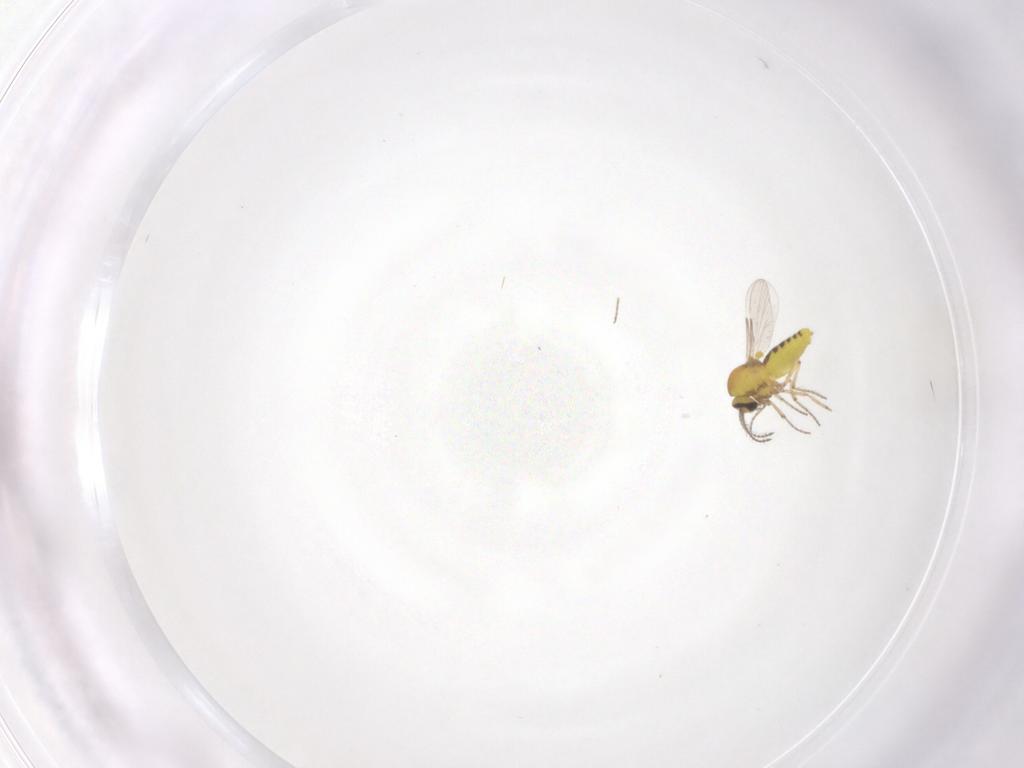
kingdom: Animalia
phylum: Arthropoda
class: Insecta
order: Diptera
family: Ceratopogonidae
